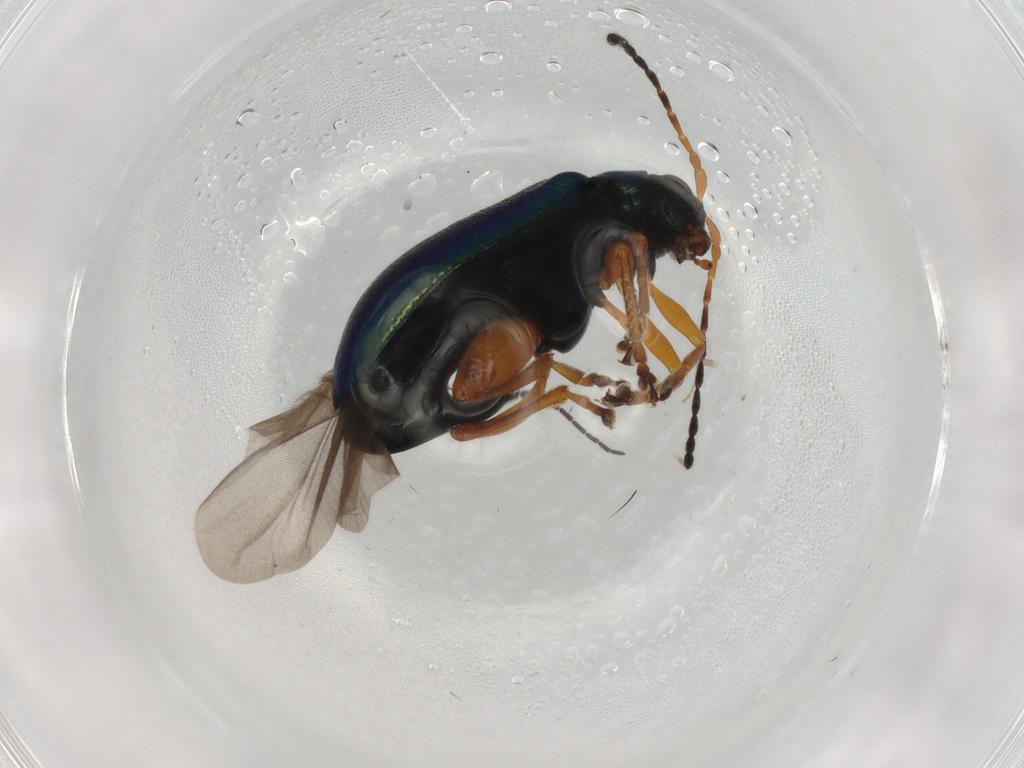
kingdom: Animalia
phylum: Arthropoda
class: Insecta
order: Coleoptera
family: Chrysomelidae
